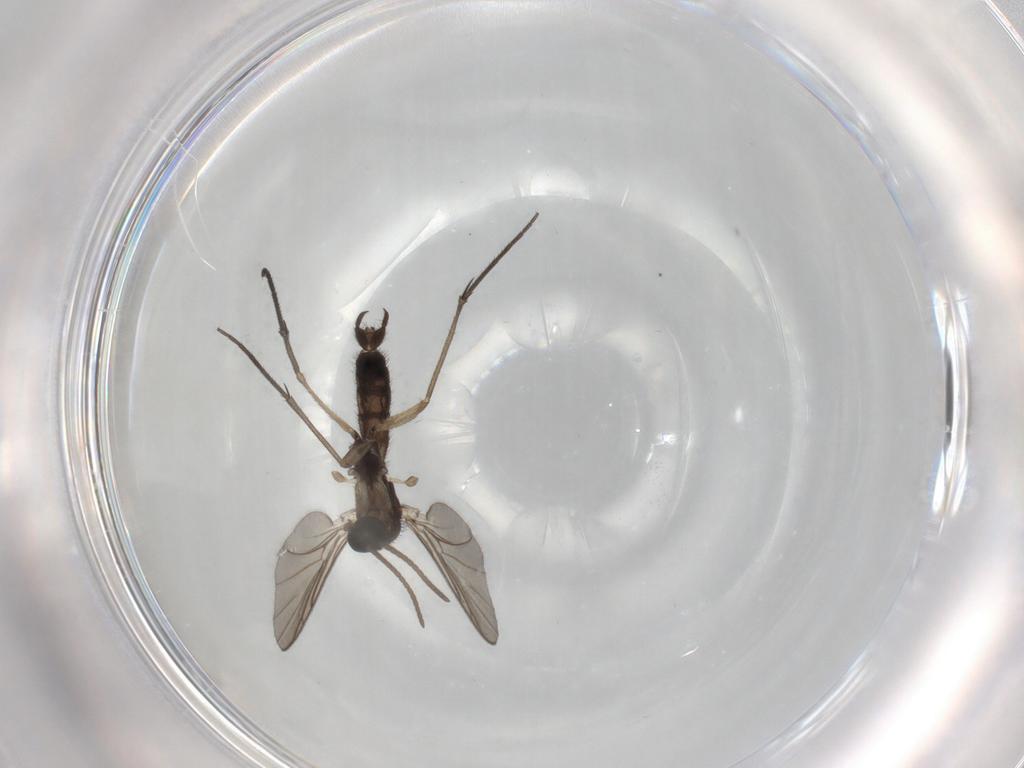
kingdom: Animalia
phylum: Arthropoda
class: Insecta
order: Diptera
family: Keroplatidae
